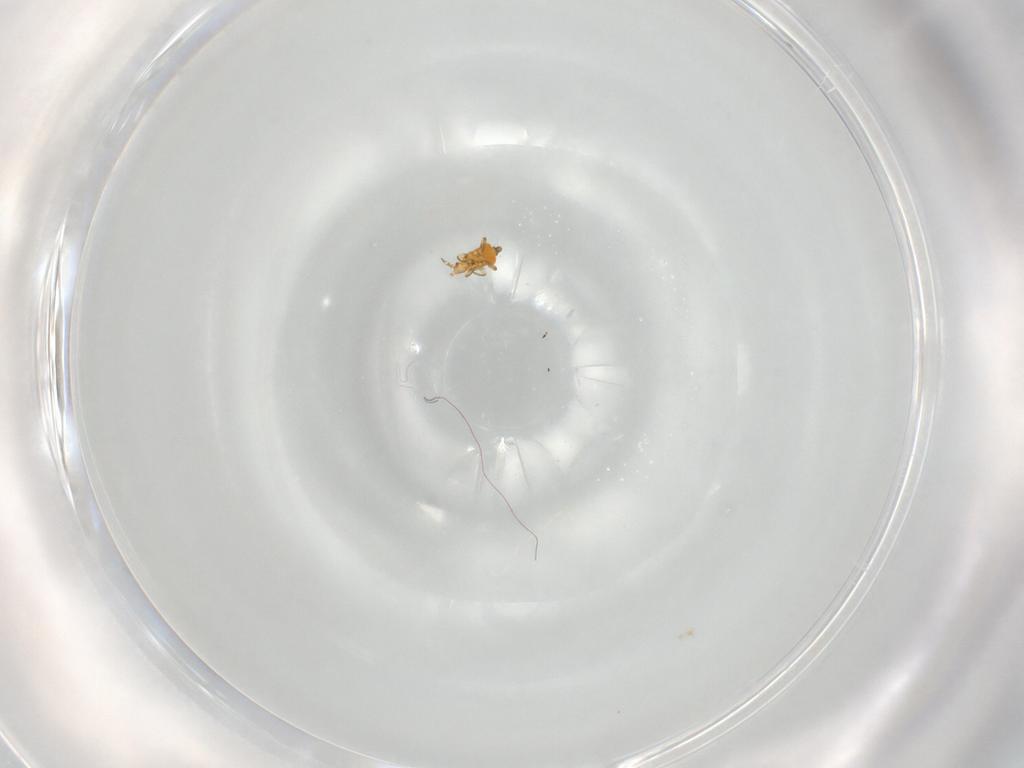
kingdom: Animalia
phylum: Arthropoda
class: Insecta
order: Thysanoptera
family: Thripidae
